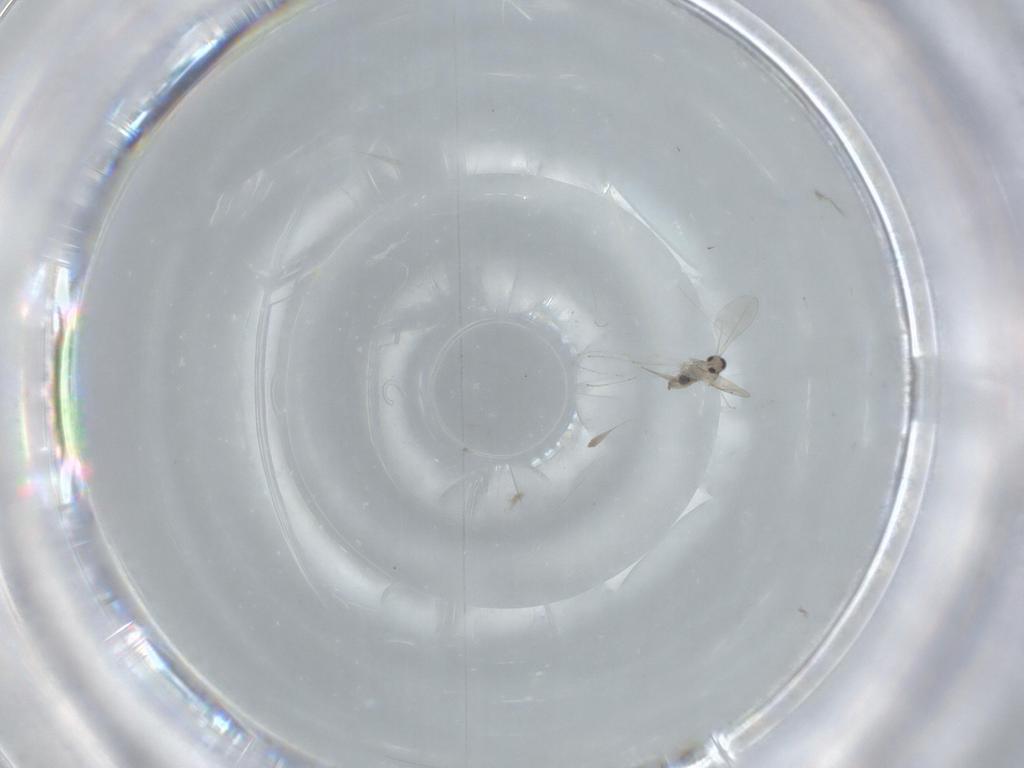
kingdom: Animalia
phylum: Arthropoda
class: Insecta
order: Diptera
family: Cecidomyiidae
